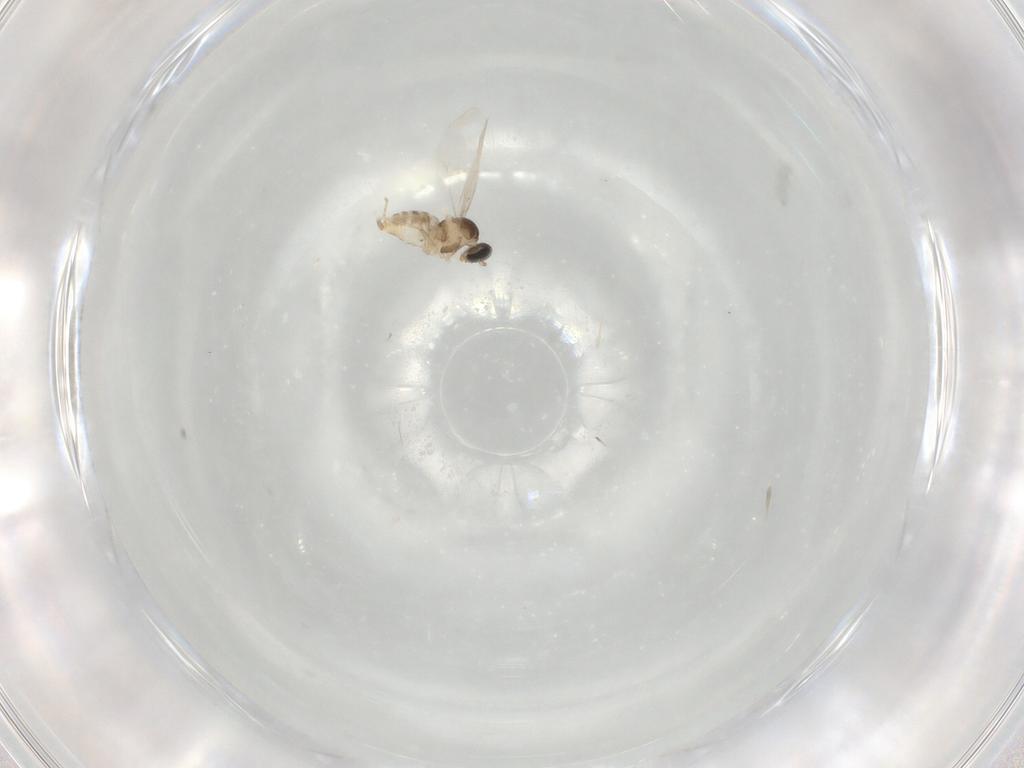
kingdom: Animalia
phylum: Arthropoda
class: Insecta
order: Diptera
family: Cecidomyiidae
